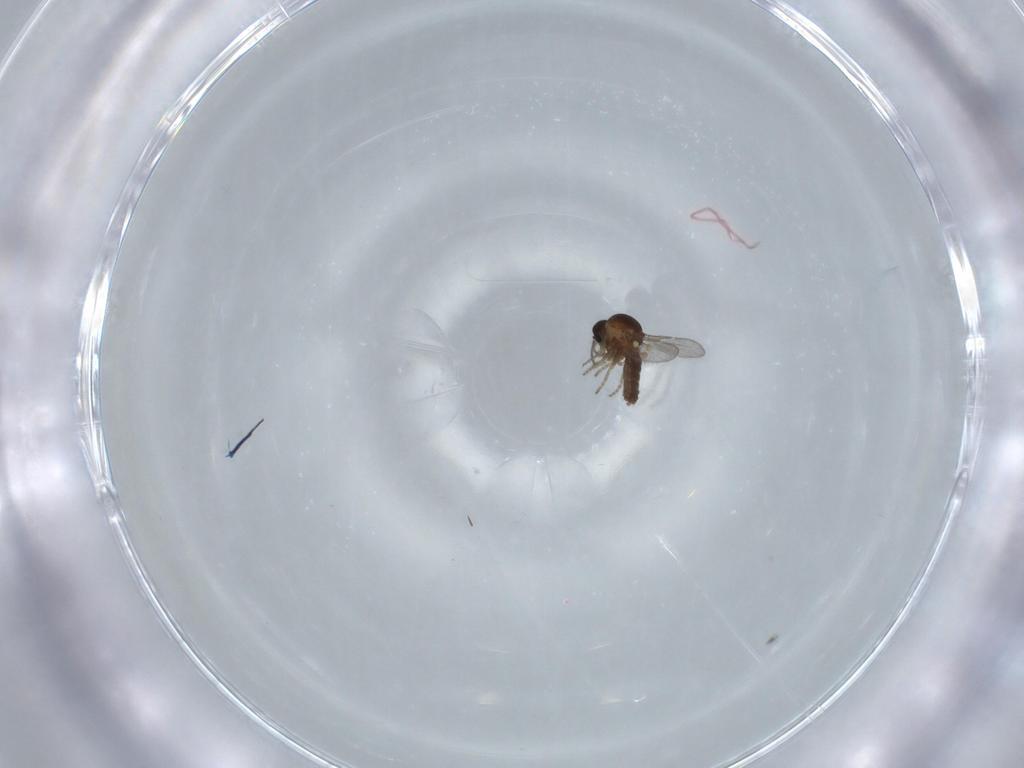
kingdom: Animalia
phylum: Arthropoda
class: Insecta
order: Diptera
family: Ceratopogonidae
